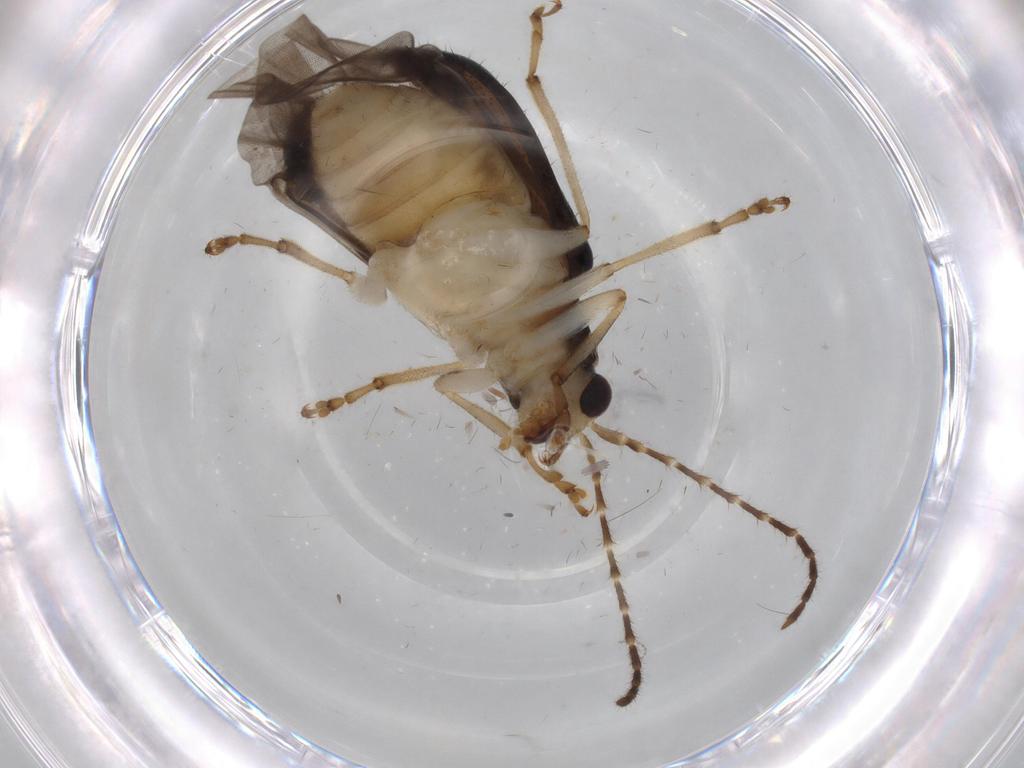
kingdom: Animalia
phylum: Arthropoda
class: Insecta
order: Coleoptera
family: Chrysomelidae
